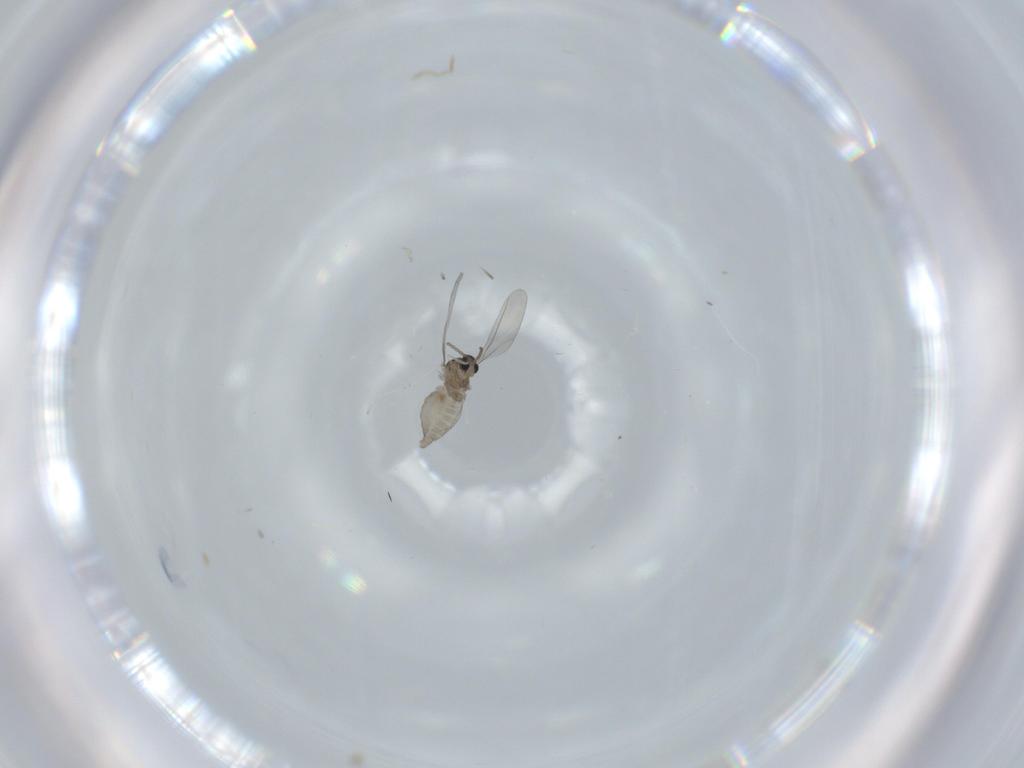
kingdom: Animalia
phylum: Arthropoda
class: Insecta
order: Diptera
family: Cecidomyiidae
